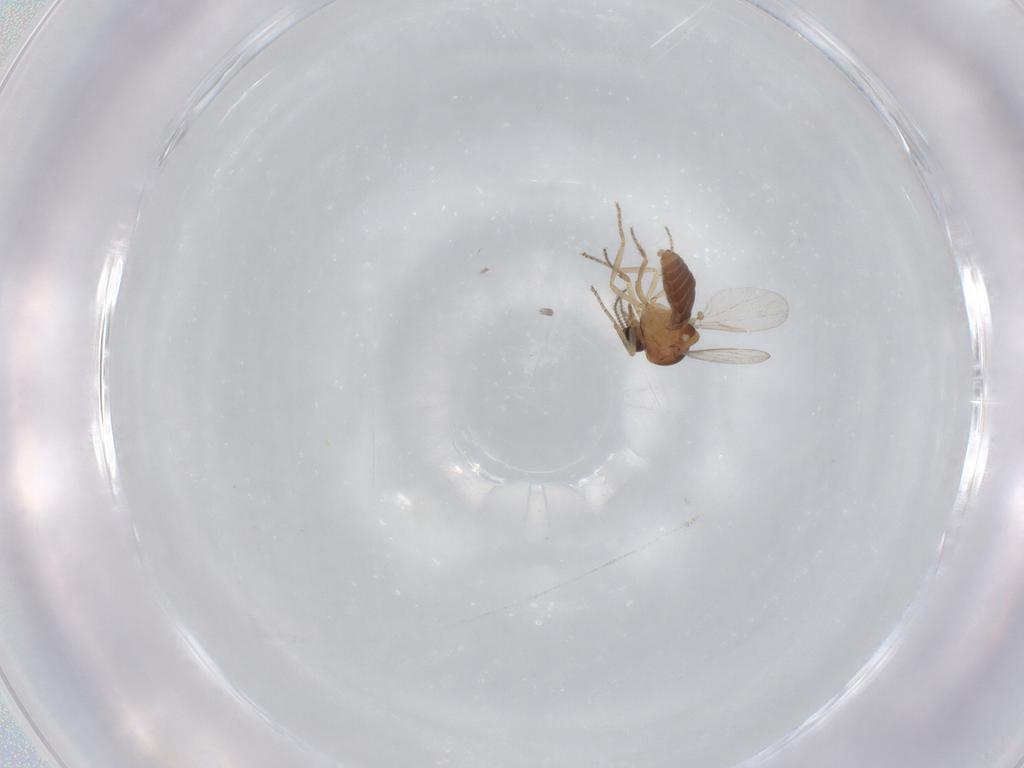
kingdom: Animalia
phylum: Arthropoda
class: Insecta
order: Diptera
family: Ceratopogonidae
